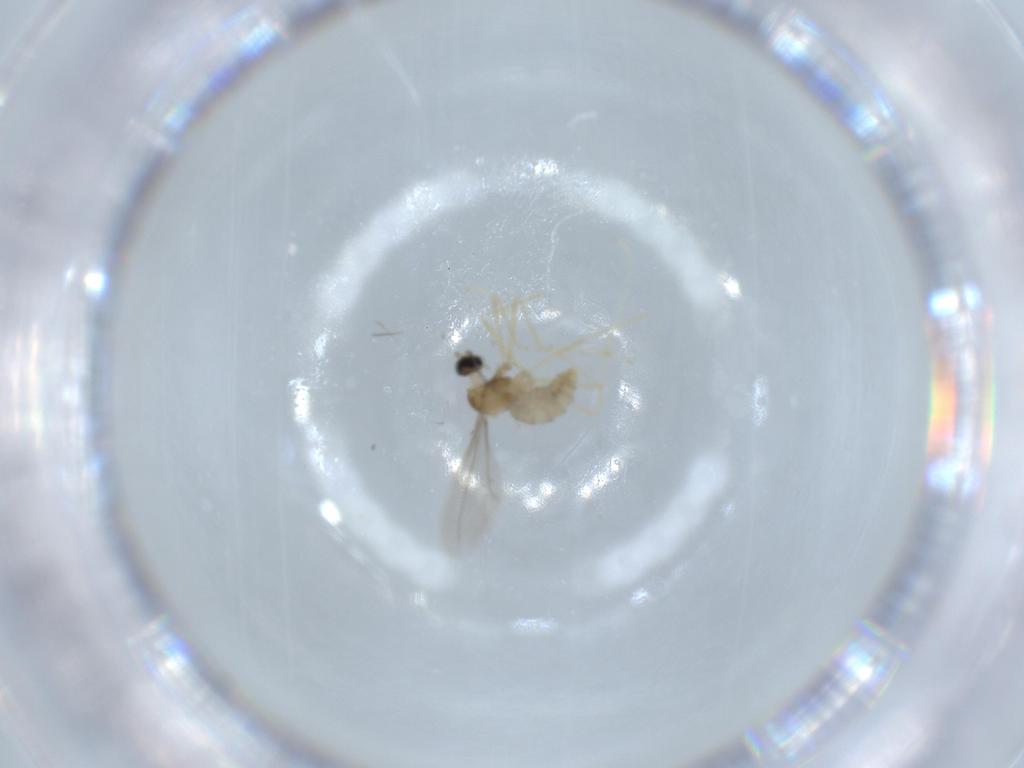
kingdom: Animalia
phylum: Arthropoda
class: Insecta
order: Diptera
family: Cecidomyiidae
